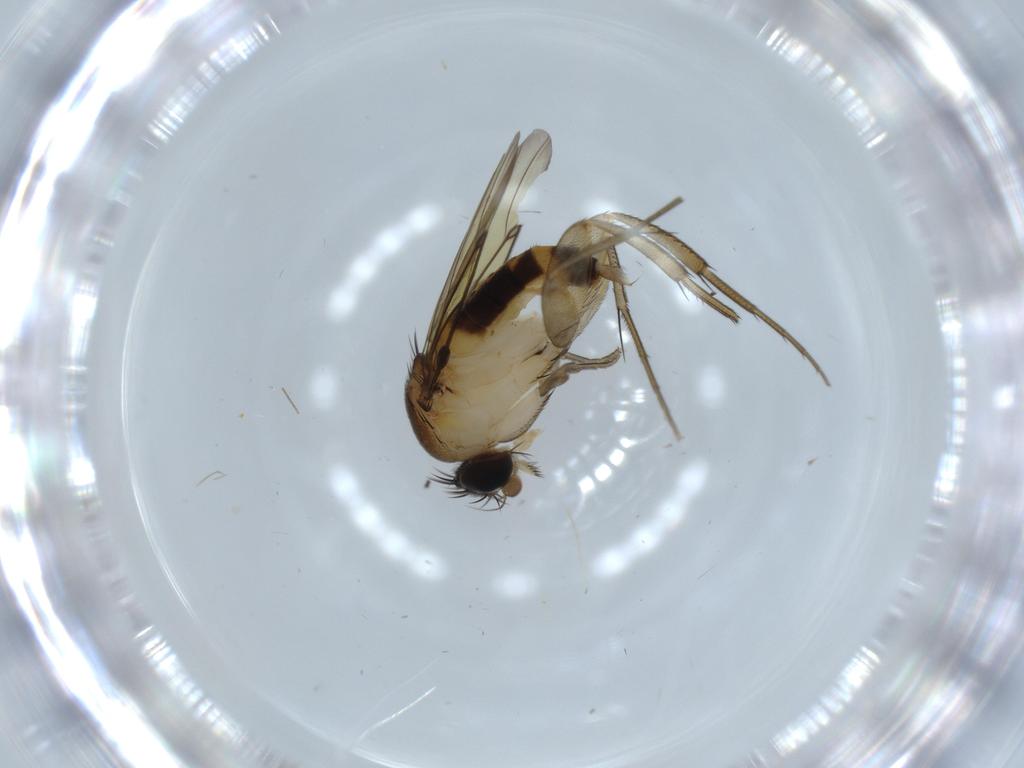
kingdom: Animalia
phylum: Arthropoda
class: Insecta
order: Diptera
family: Phoridae
